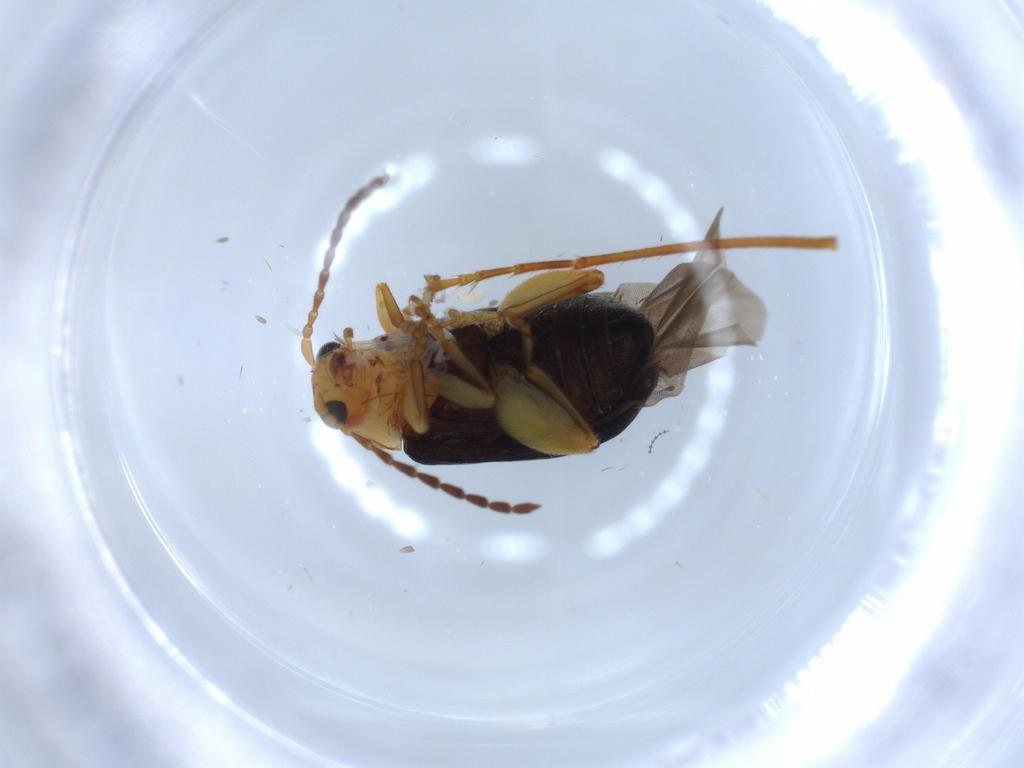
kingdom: Animalia
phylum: Arthropoda
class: Insecta
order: Coleoptera
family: Chrysomelidae
